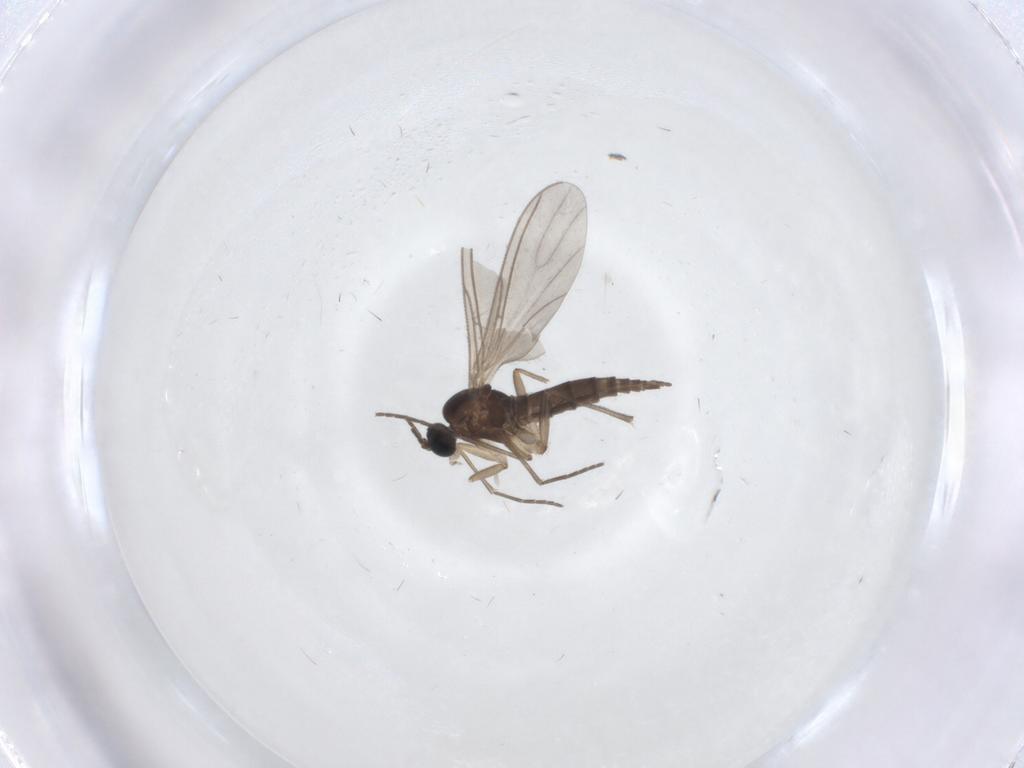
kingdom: Animalia
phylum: Arthropoda
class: Insecta
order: Diptera
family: Sciaridae
